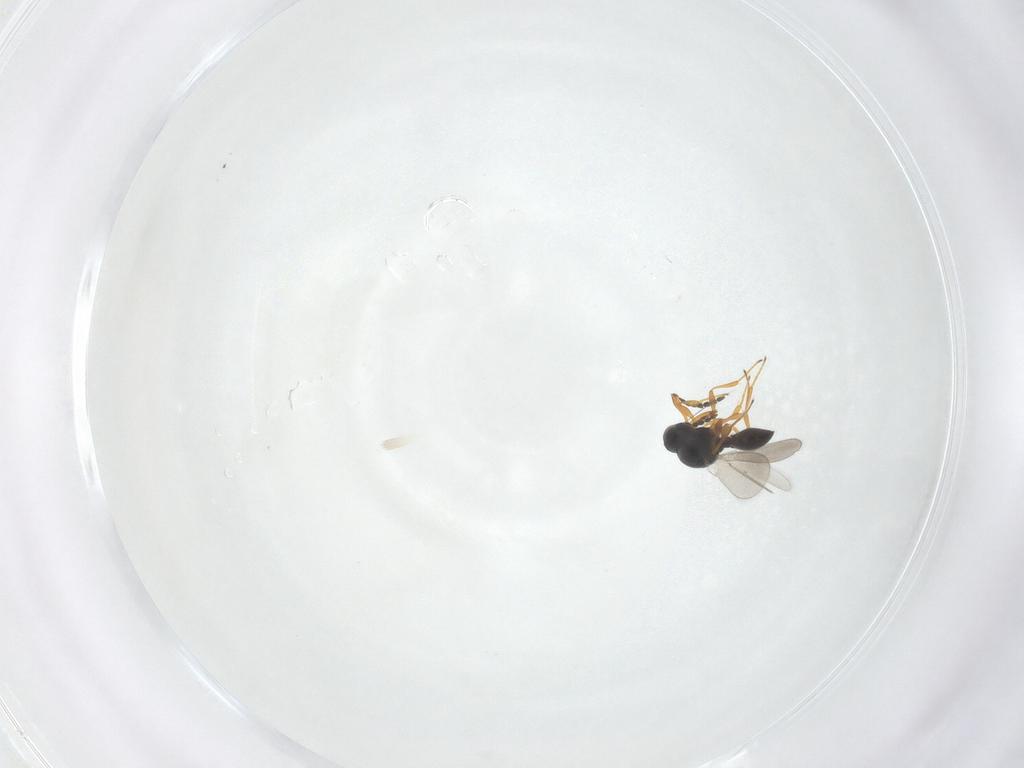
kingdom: Animalia
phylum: Arthropoda
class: Insecta
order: Hymenoptera
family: Platygastridae
